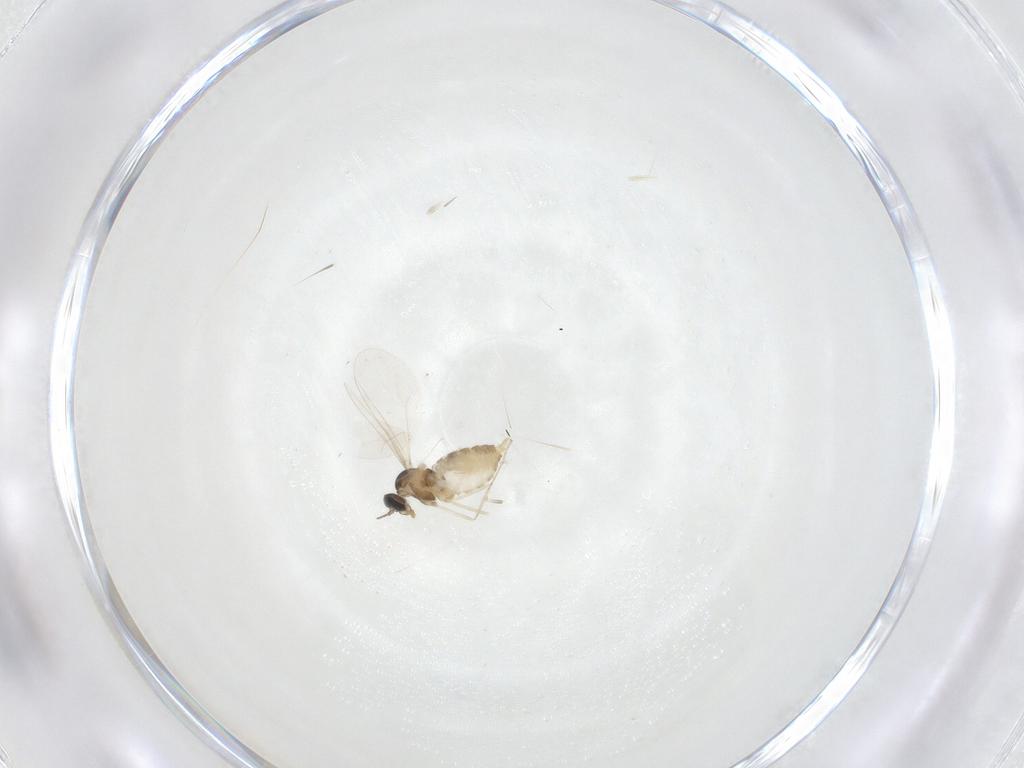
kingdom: Animalia
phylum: Arthropoda
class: Insecta
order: Diptera
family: Cecidomyiidae
